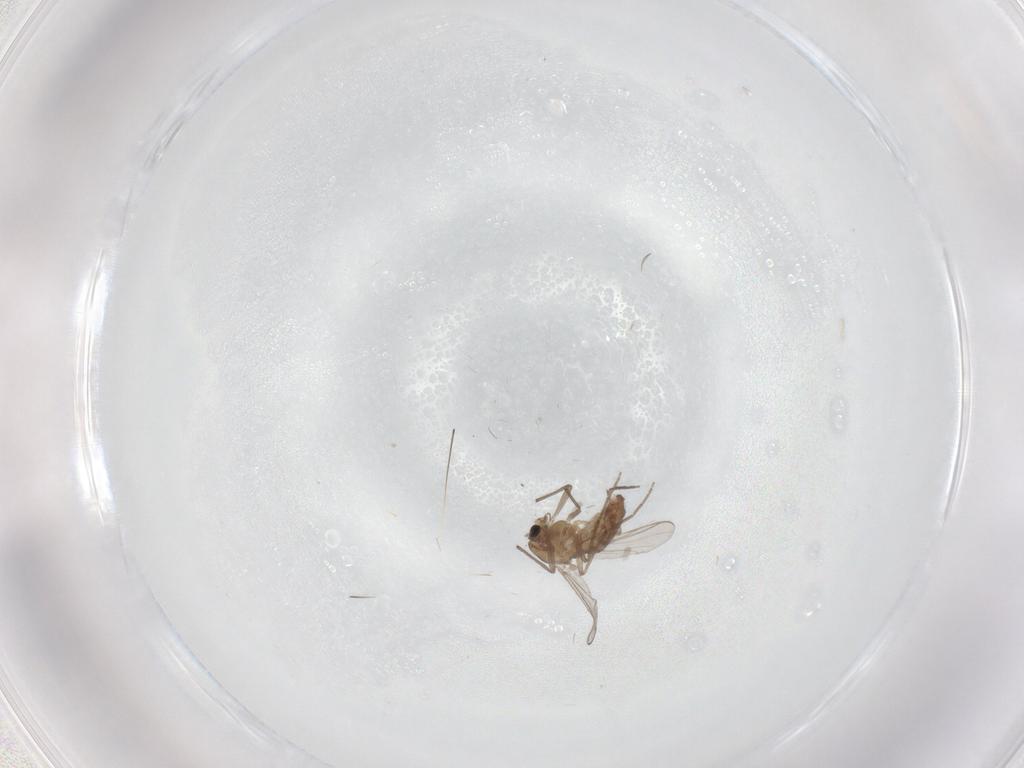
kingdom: Animalia
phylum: Arthropoda
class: Insecta
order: Diptera
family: Chironomidae
